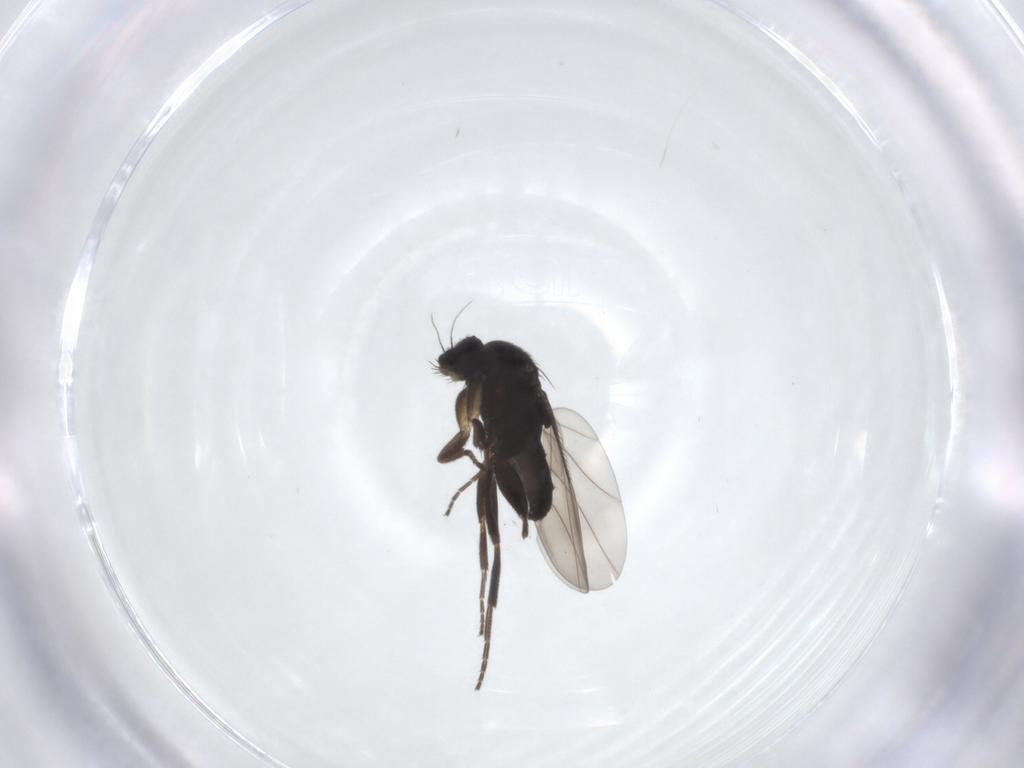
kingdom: Animalia
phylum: Arthropoda
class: Insecta
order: Diptera
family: Phoridae
